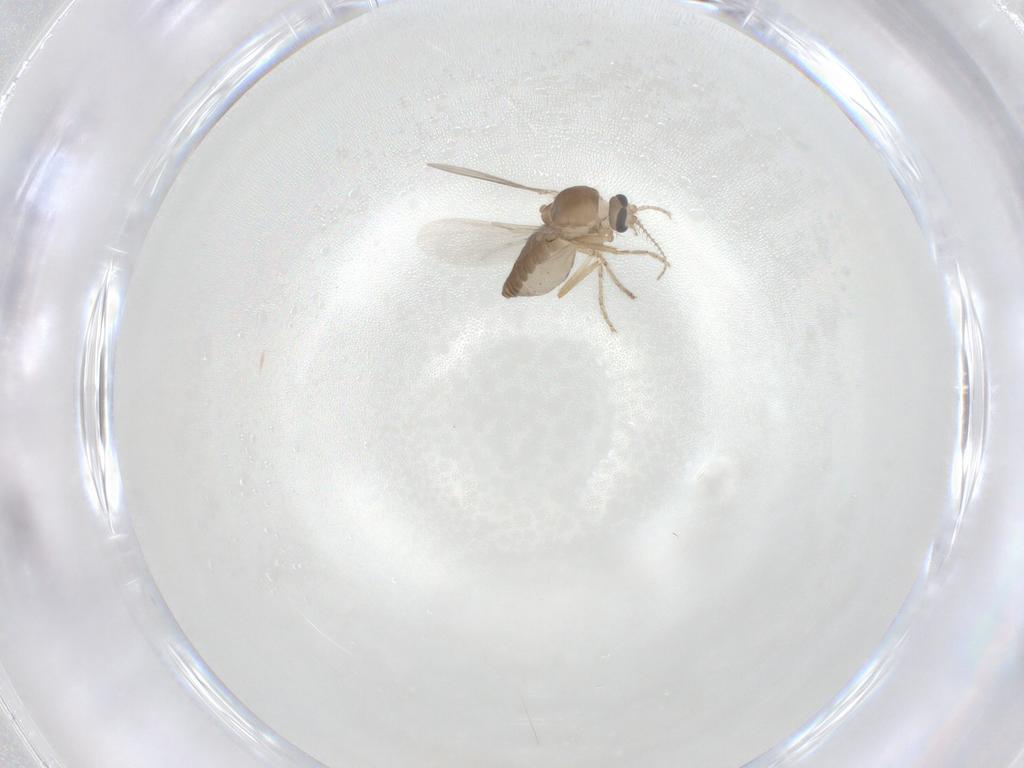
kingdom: Animalia
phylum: Arthropoda
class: Insecta
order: Diptera
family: Ceratopogonidae
